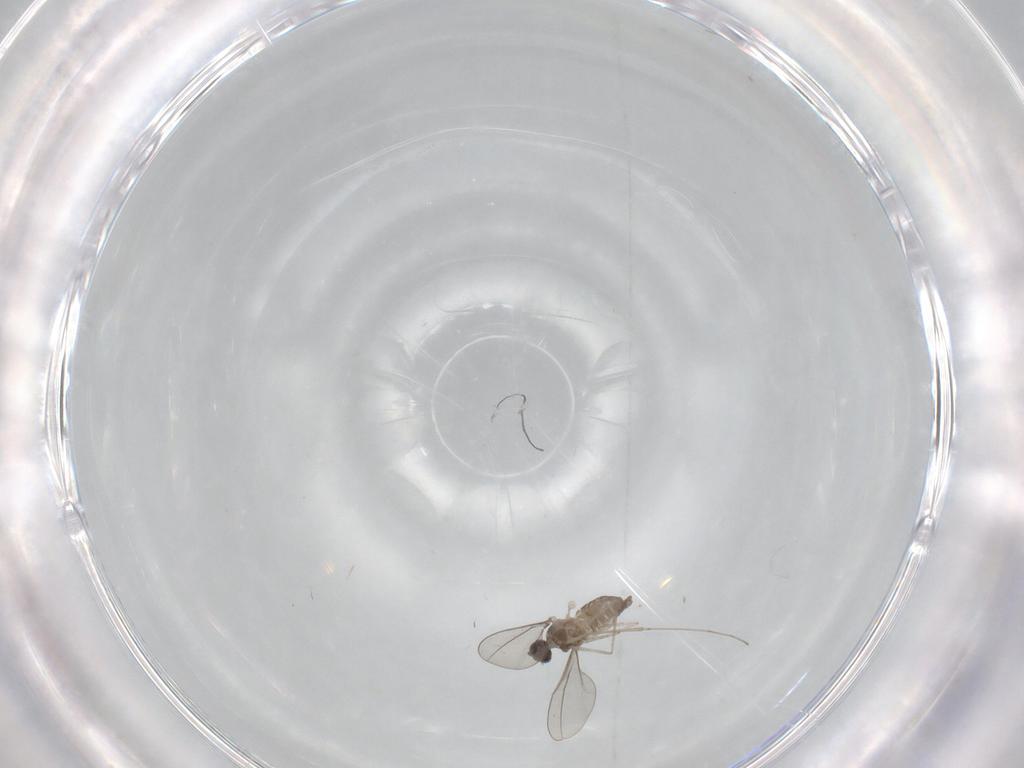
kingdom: Animalia
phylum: Arthropoda
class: Insecta
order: Diptera
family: Cecidomyiidae
